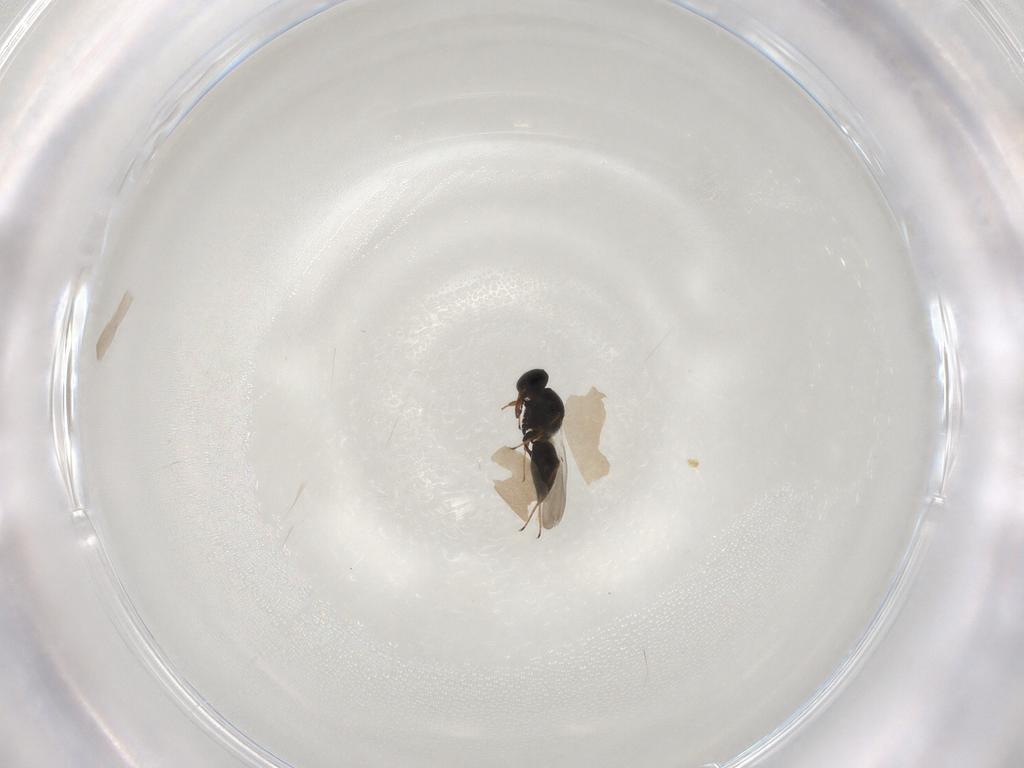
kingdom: Animalia
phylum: Arthropoda
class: Insecta
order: Hymenoptera
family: Platygastridae
